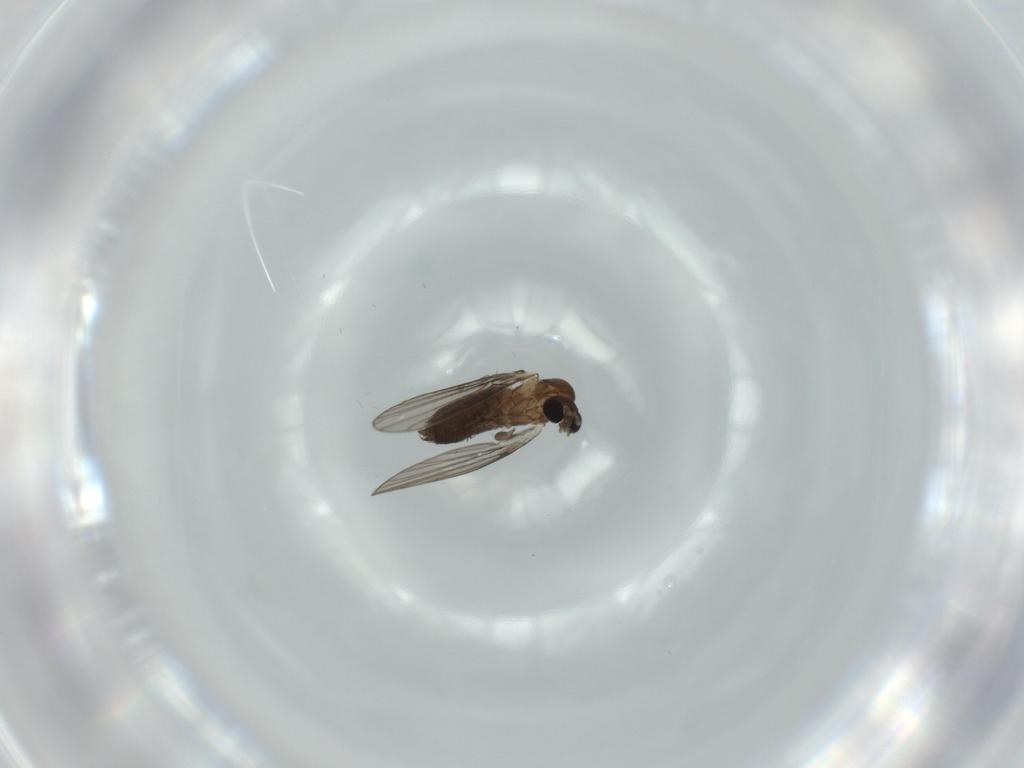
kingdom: Animalia
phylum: Arthropoda
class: Insecta
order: Diptera
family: Psychodidae
